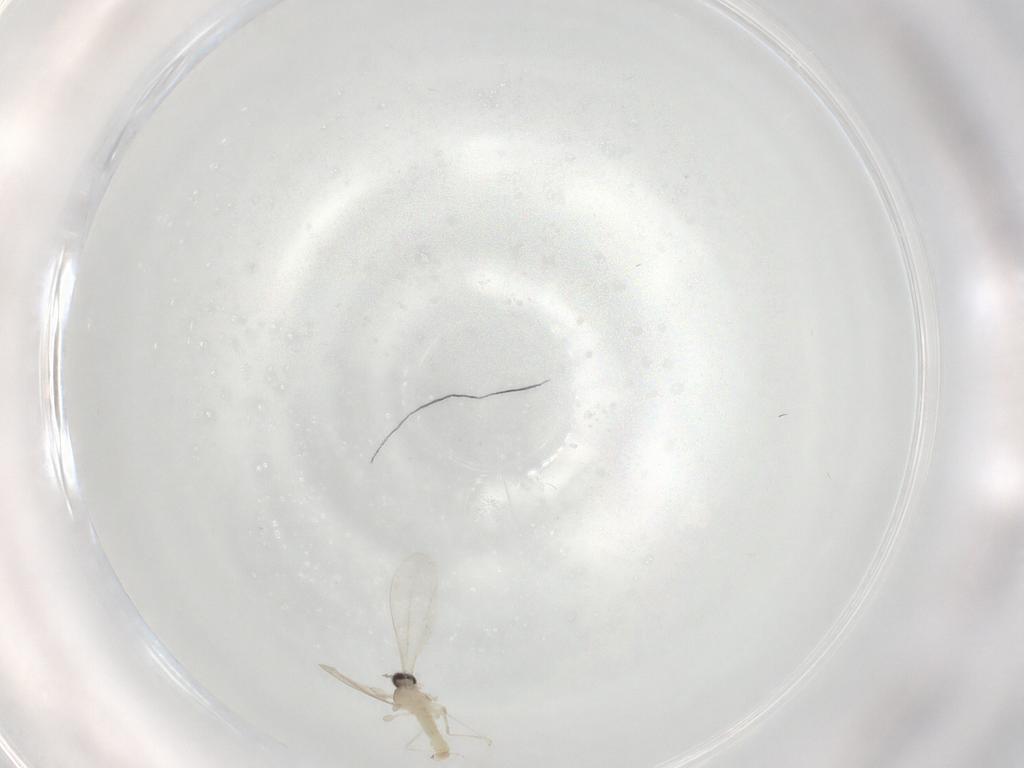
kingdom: Animalia
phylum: Arthropoda
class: Insecta
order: Diptera
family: Cecidomyiidae
